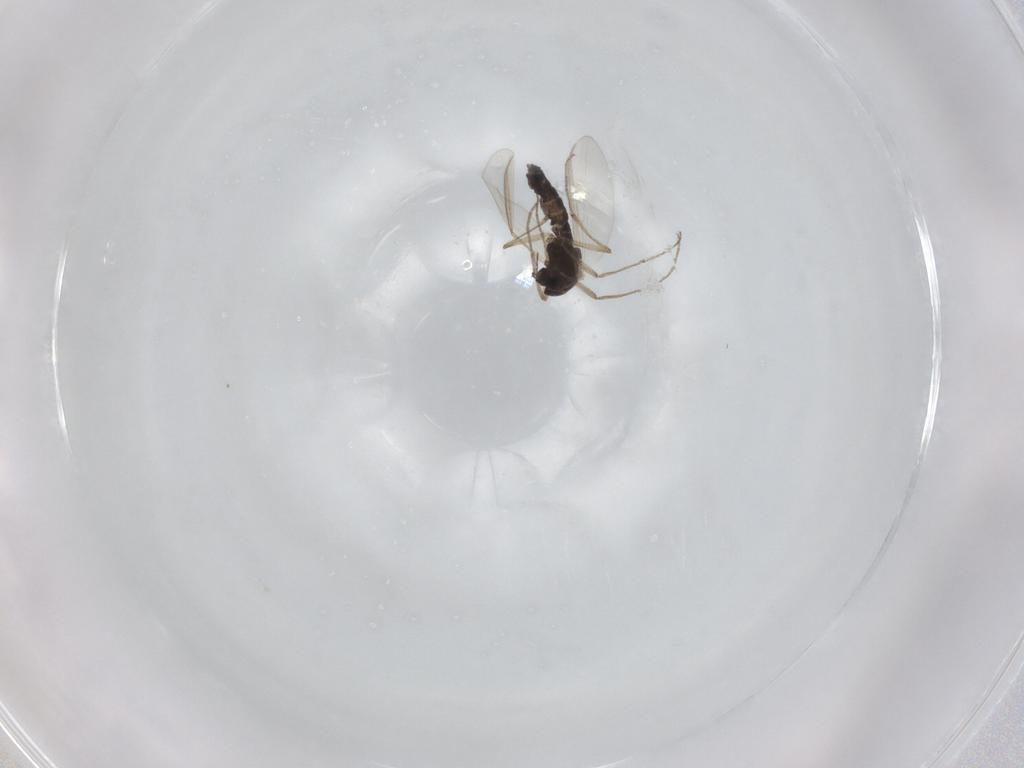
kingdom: Animalia
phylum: Arthropoda
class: Insecta
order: Diptera
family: Chironomidae
